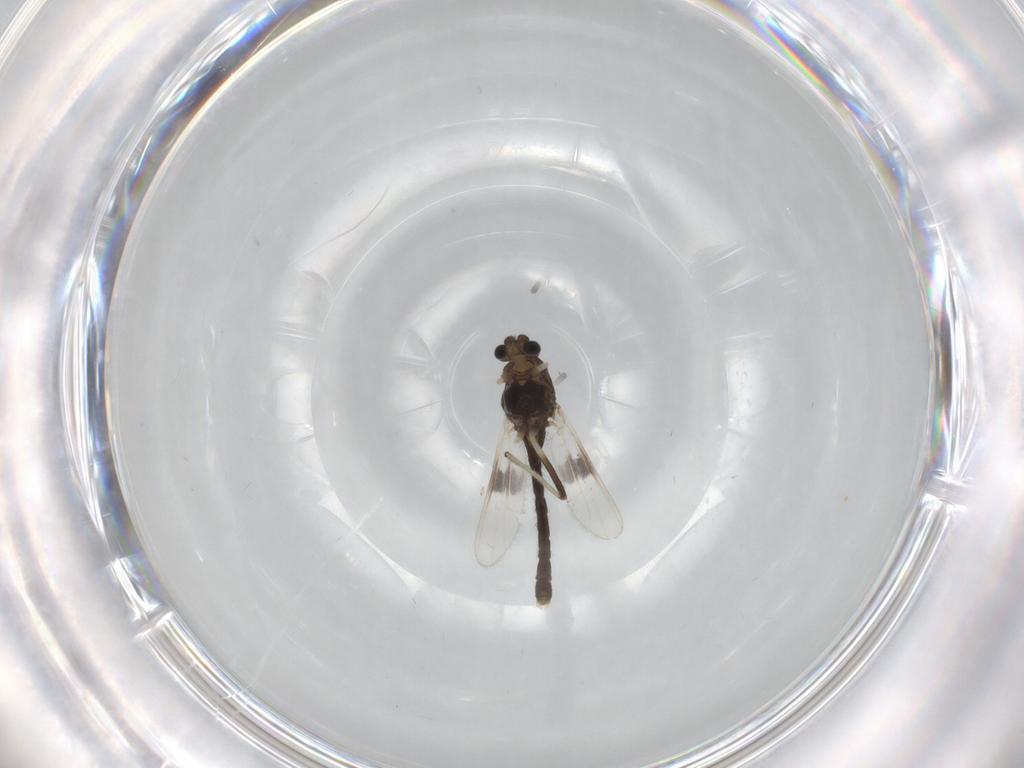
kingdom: Animalia
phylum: Arthropoda
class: Insecta
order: Diptera
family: Chironomidae
